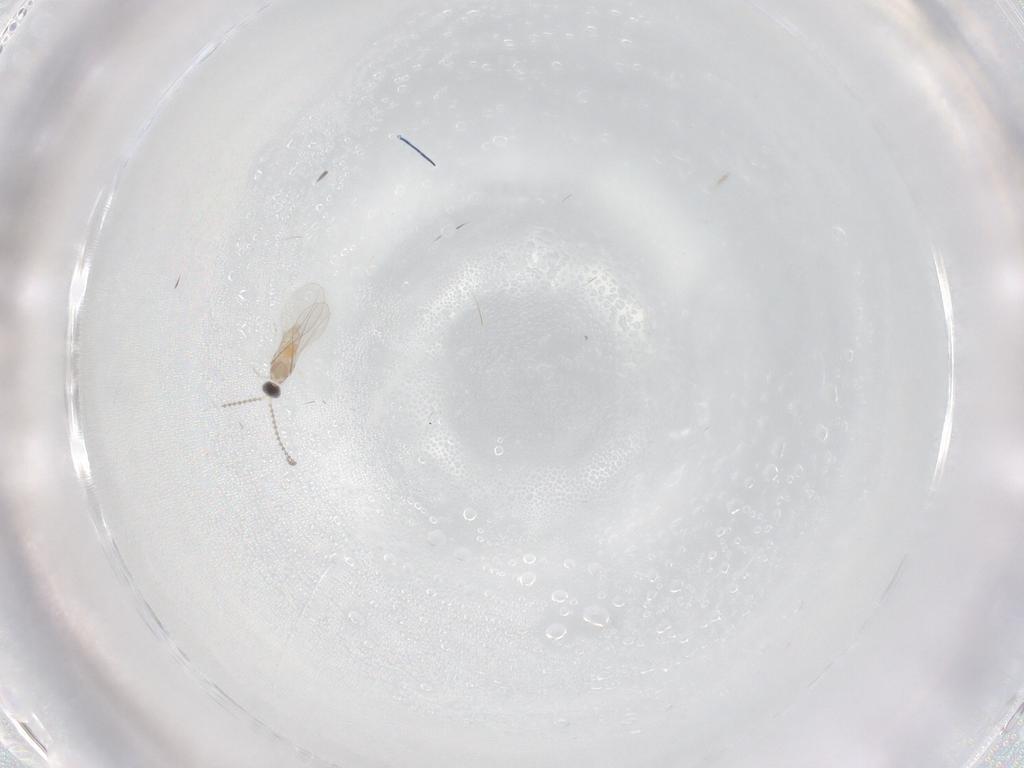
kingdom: Animalia
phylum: Arthropoda
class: Insecta
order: Diptera
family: Cecidomyiidae
